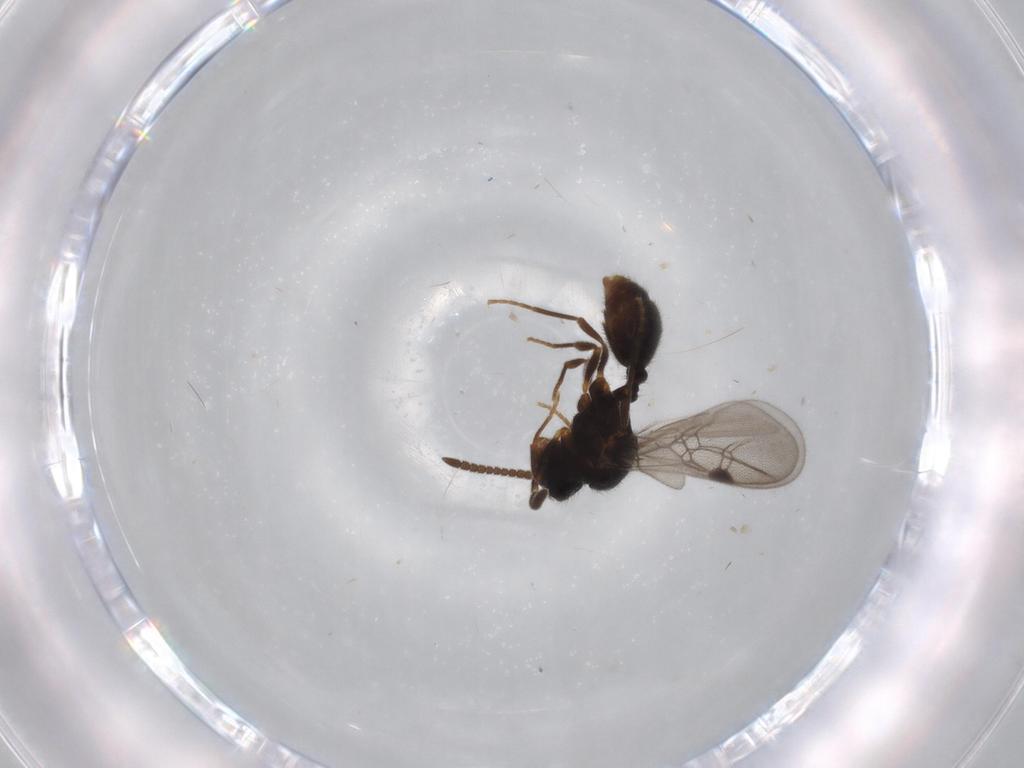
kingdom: Animalia
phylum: Arthropoda
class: Insecta
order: Hymenoptera
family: Formicidae
